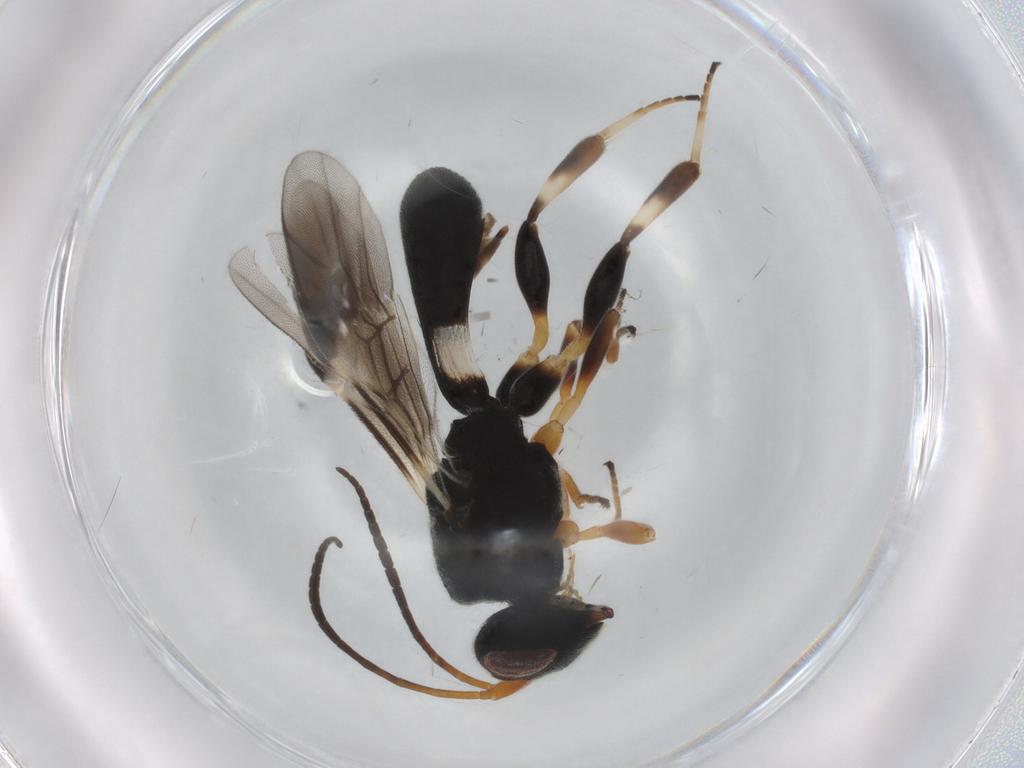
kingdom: Animalia
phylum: Arthropoda
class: Insecta
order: Hymenoptera
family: Braconidae
